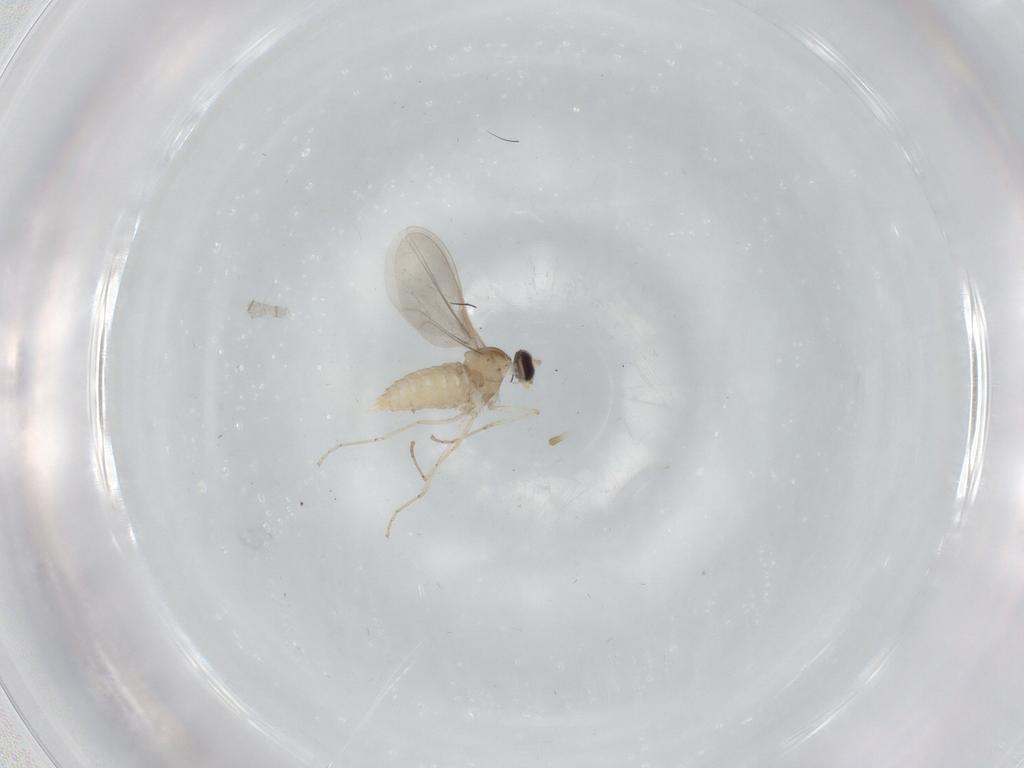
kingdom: Animalia
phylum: Arthropoda
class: Insecta
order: Diptera
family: Cecidomyiidae
